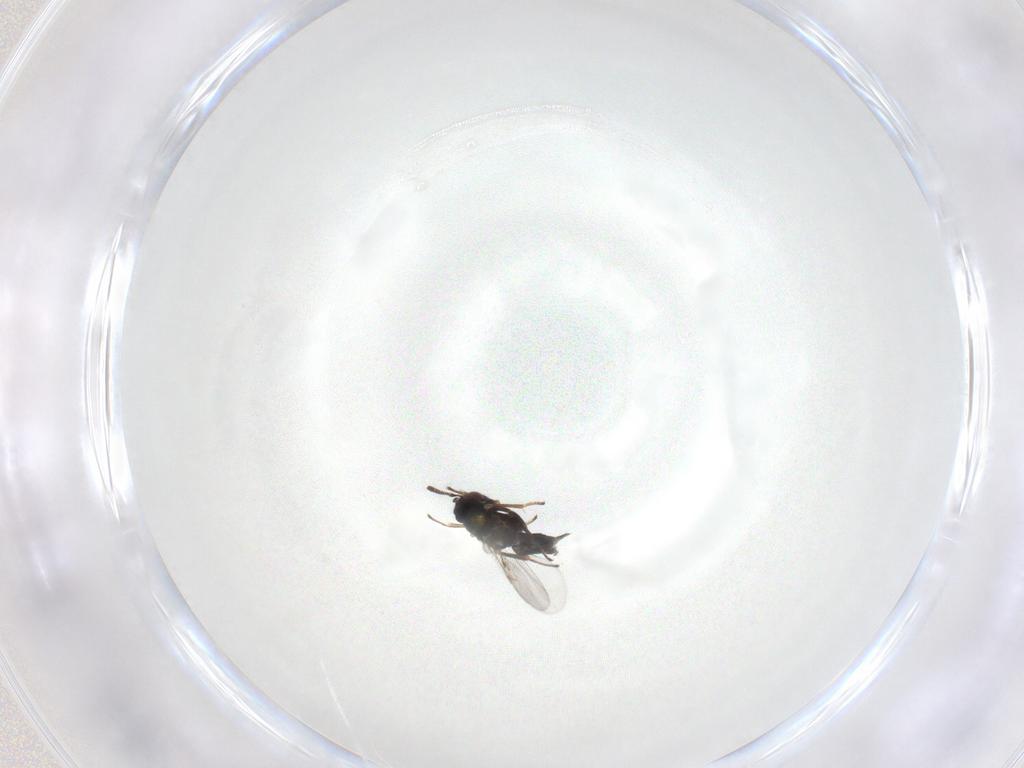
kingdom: Animalia
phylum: Arthropoda
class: Insecta
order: Hymenoptera
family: Encyrtidae
